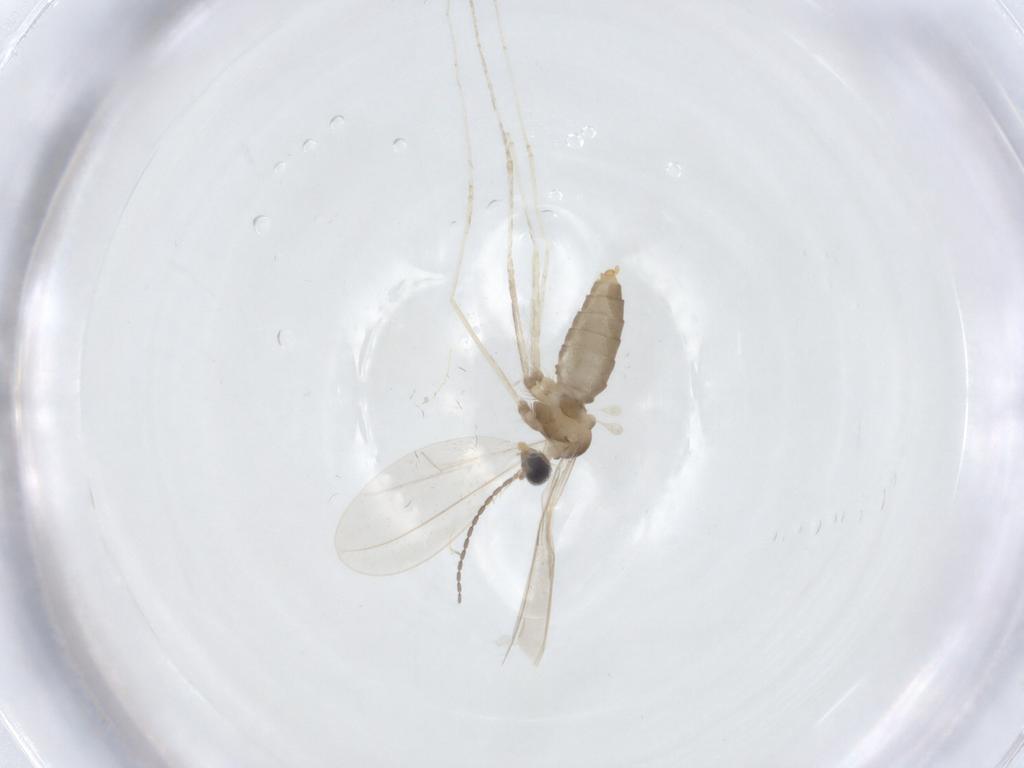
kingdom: Animalia
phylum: Arthropoda
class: Insecta
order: Diptera
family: Cecidomyiidae
